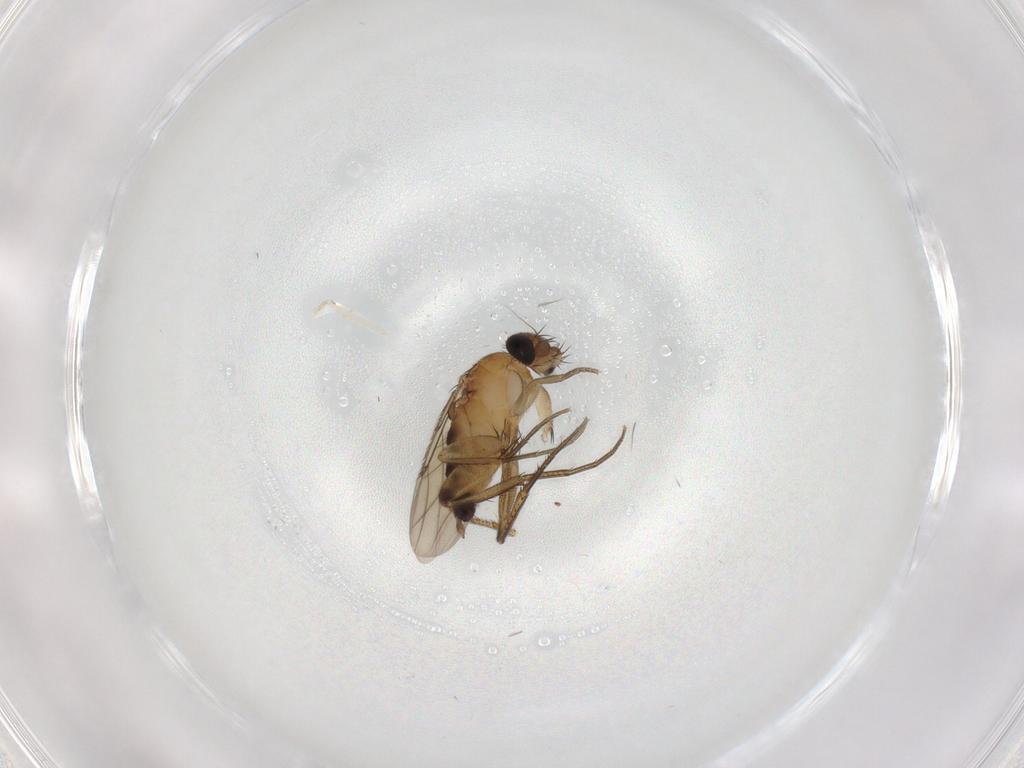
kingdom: Animalia
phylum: Arthropoda
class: Insecta
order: Diptera
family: Phoridae
